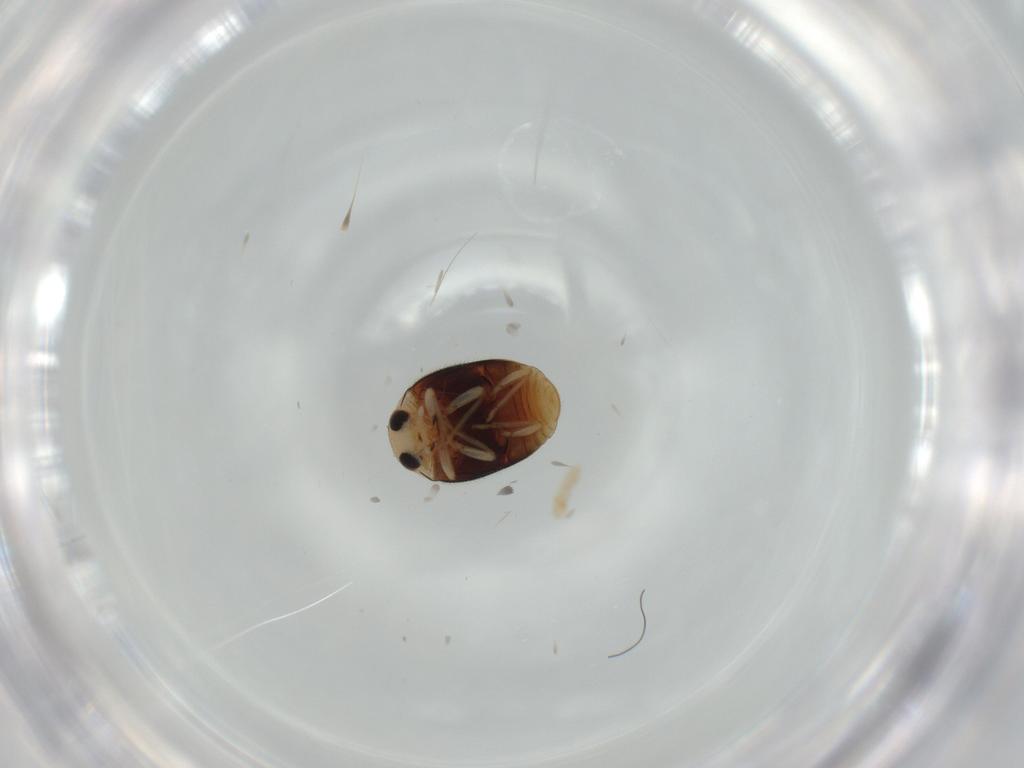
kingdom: Animalia
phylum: Arthropoda
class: Insecta
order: Coleoptera
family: Coccinellidae
